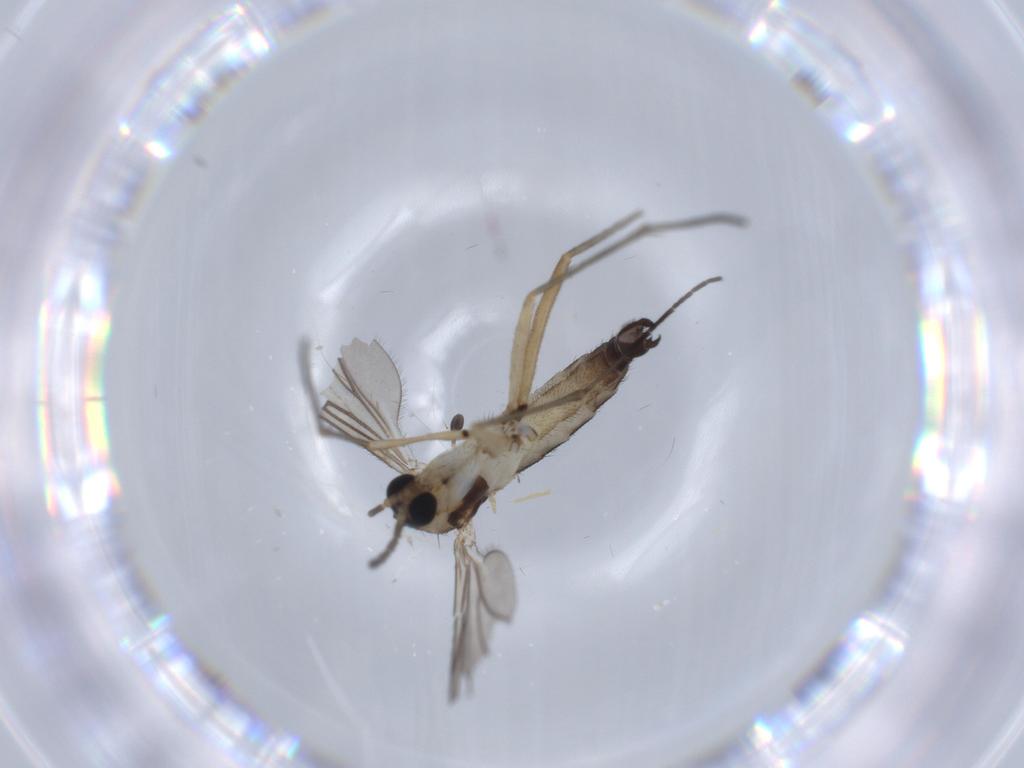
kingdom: Animalia
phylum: Arthropoda
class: Insecta
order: Diptera
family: Sciaridae
